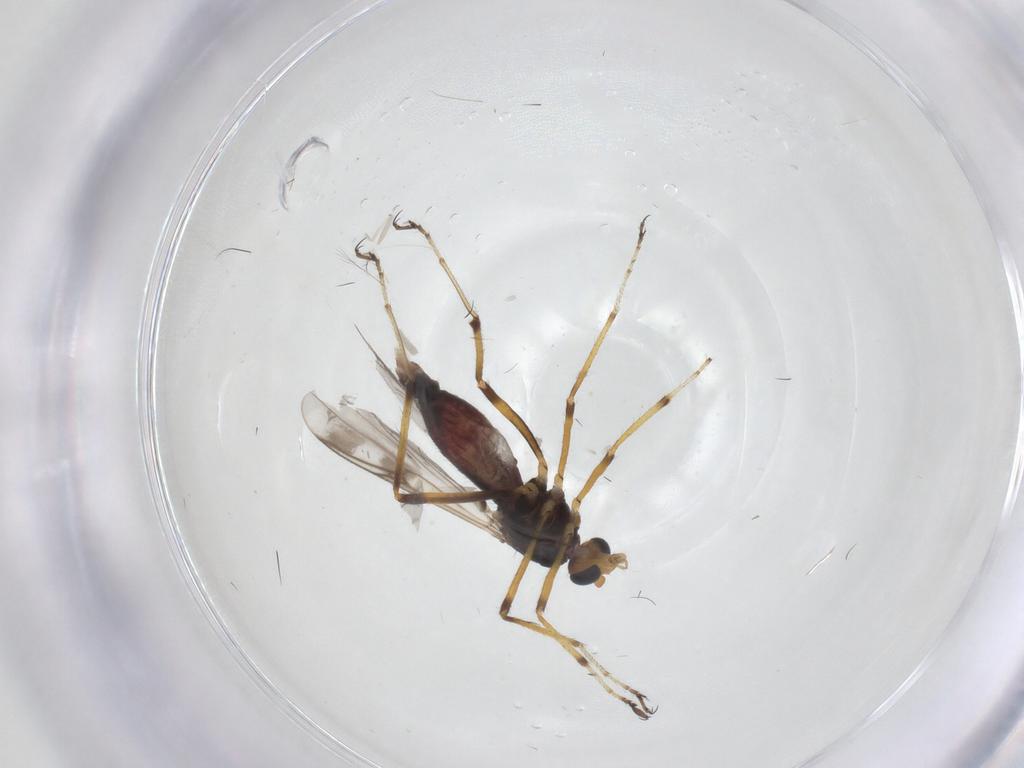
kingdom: Animalia
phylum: Arthropoda
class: Insecta
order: Diptera
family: Ceratopogonidae
